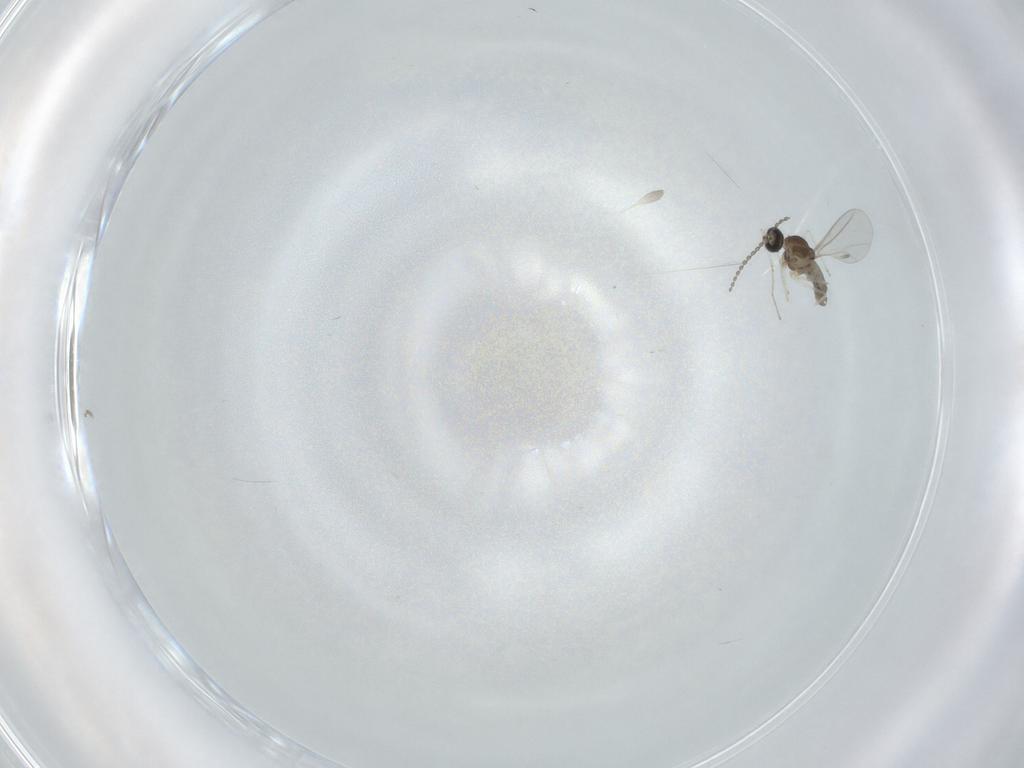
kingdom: Animalia
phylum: Arthropoda
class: Insecta
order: Diptera
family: Cecidomyiidae
